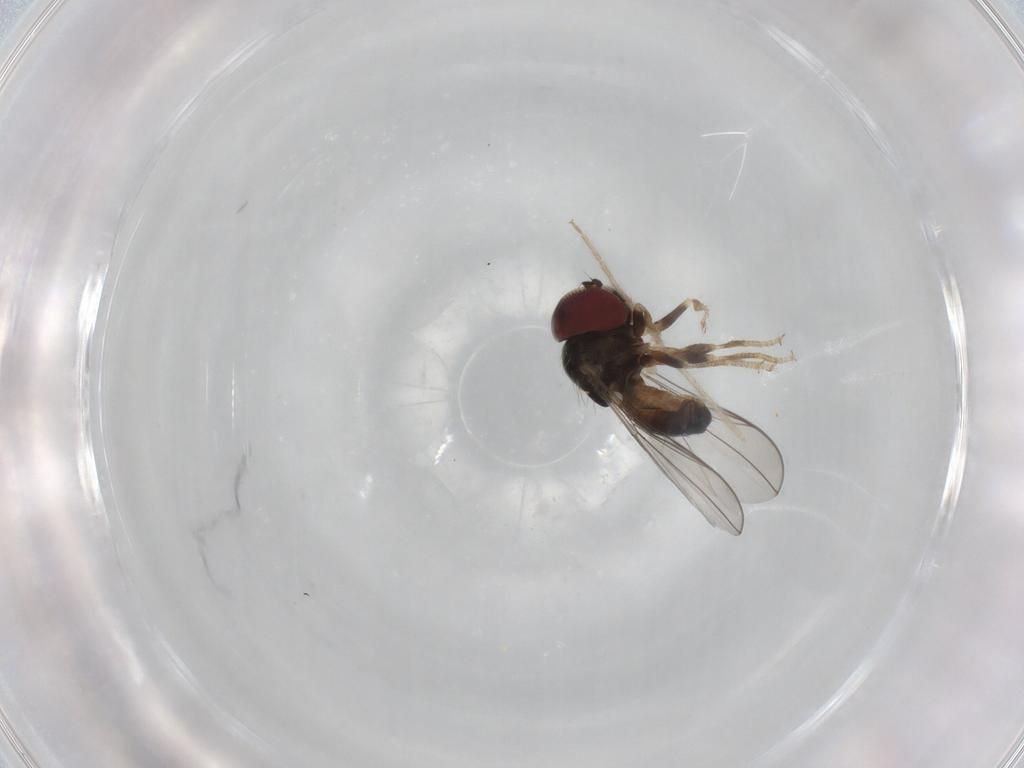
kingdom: Animalia
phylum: Arthropoda
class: Insecta
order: Diptera
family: Pipunculidae
